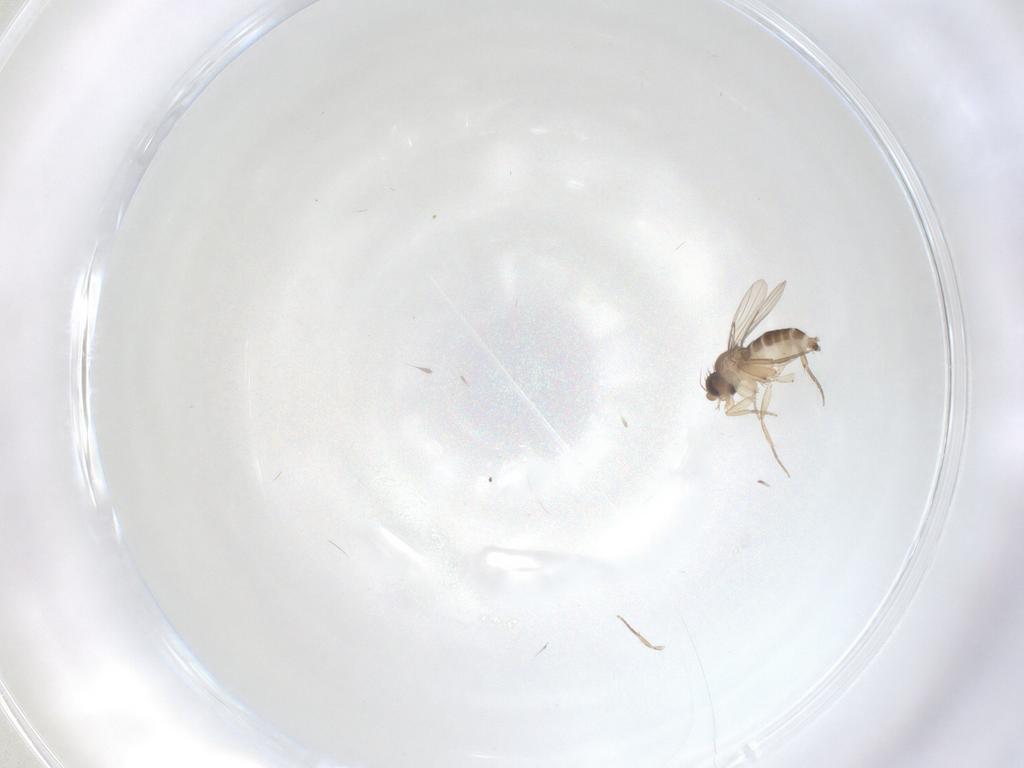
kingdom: Animalia
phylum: Arthropoda
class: Insecta
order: Diptera
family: Phoridae
